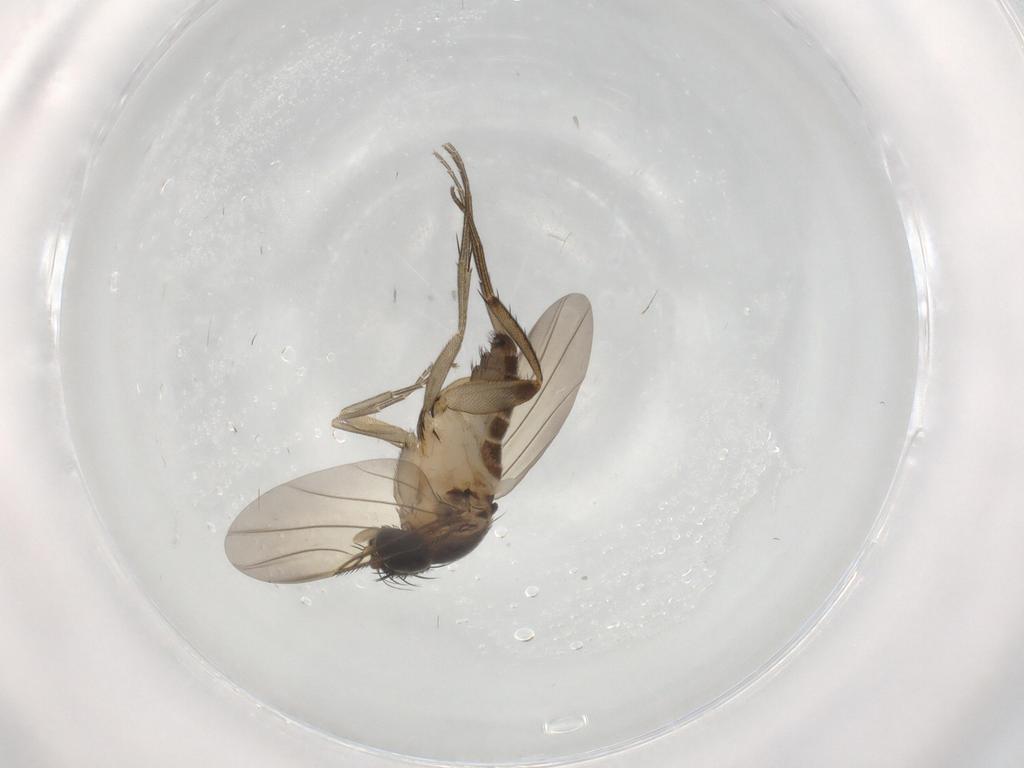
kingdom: Animalia
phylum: Arthropoda
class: Insecta
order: Diptera
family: Phoridae
